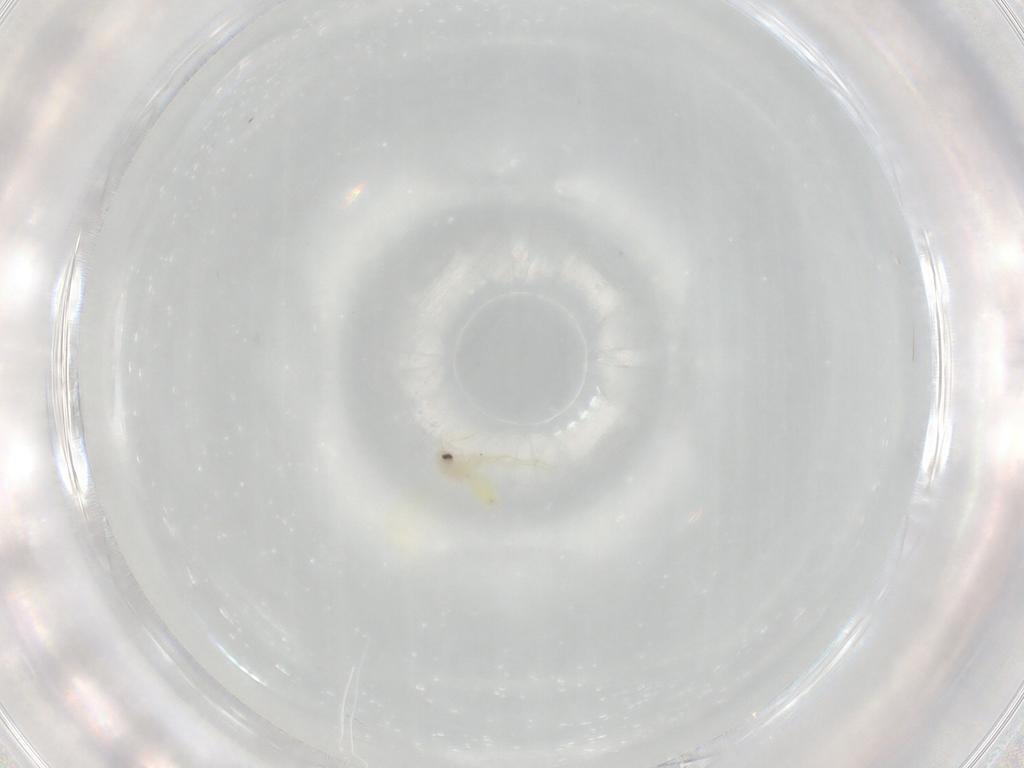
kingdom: Animalia
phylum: Arthropoda
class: Insecta
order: Hemiptera
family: Aleyrodidae
